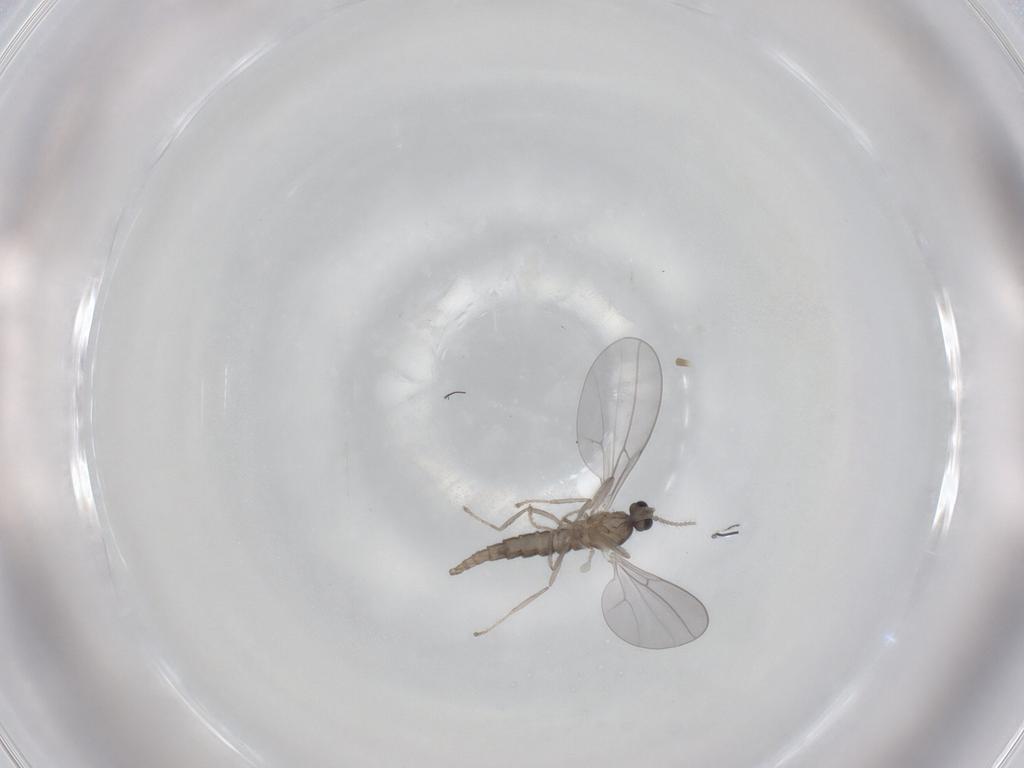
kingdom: Animalia
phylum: Arthropoda
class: Insecta
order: Diptera
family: Cecidomyiidae
